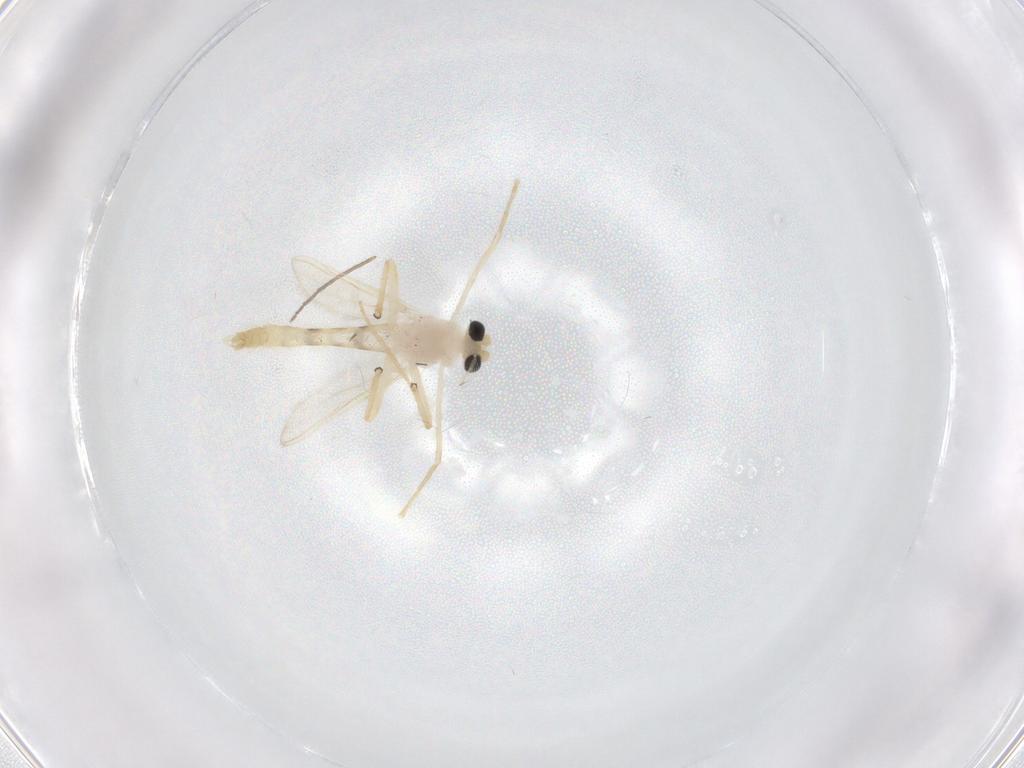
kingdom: Animalia
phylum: Arthropoda
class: Insecta
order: Diptera
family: Chironomidae
